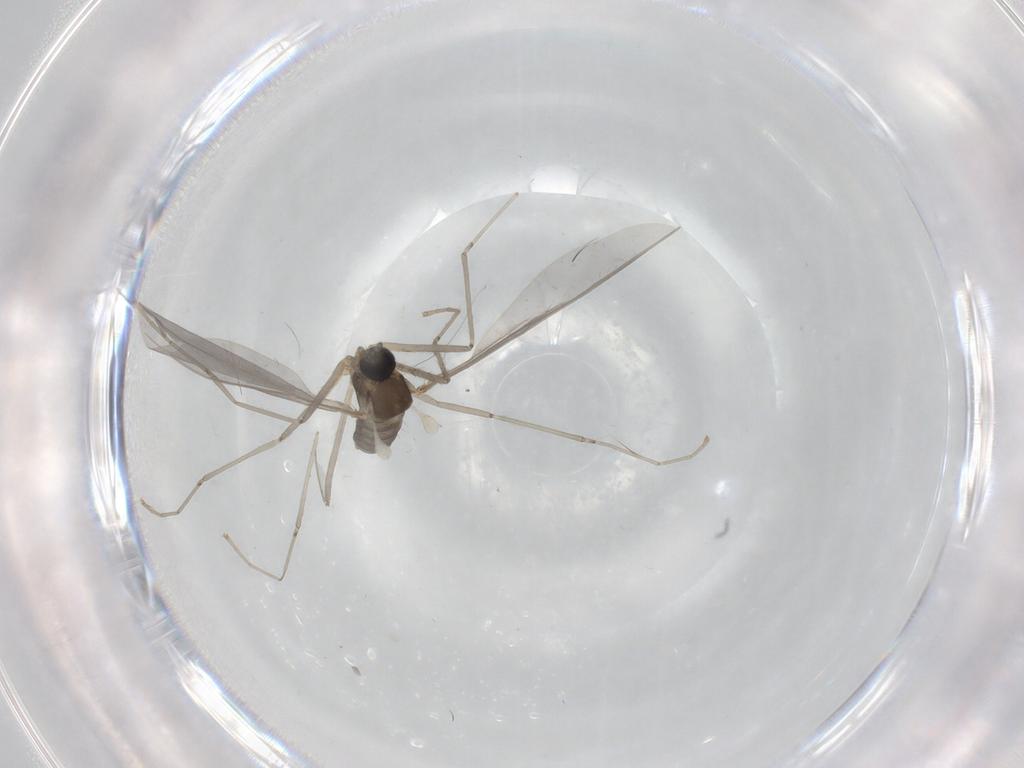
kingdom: Animalia
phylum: Arthropoda
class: Insecta
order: Diptera
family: Cecidomyiidae
